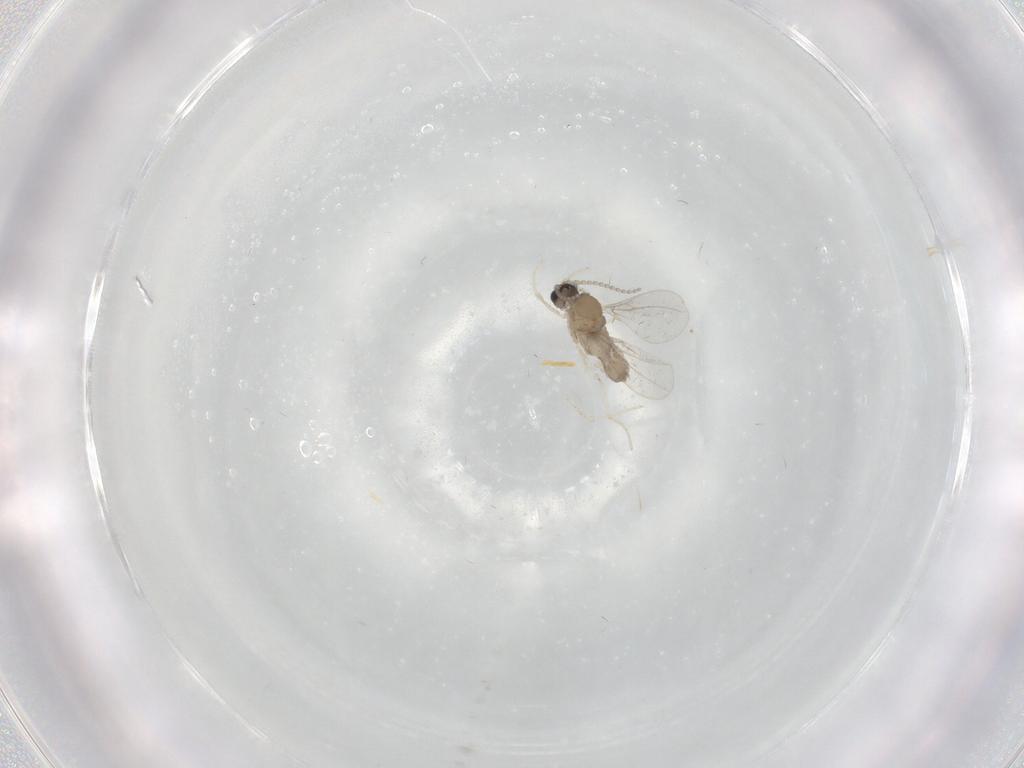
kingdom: Animalia
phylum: Arthropoda
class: Insecta
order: Diptera
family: Cecidomyiidae
